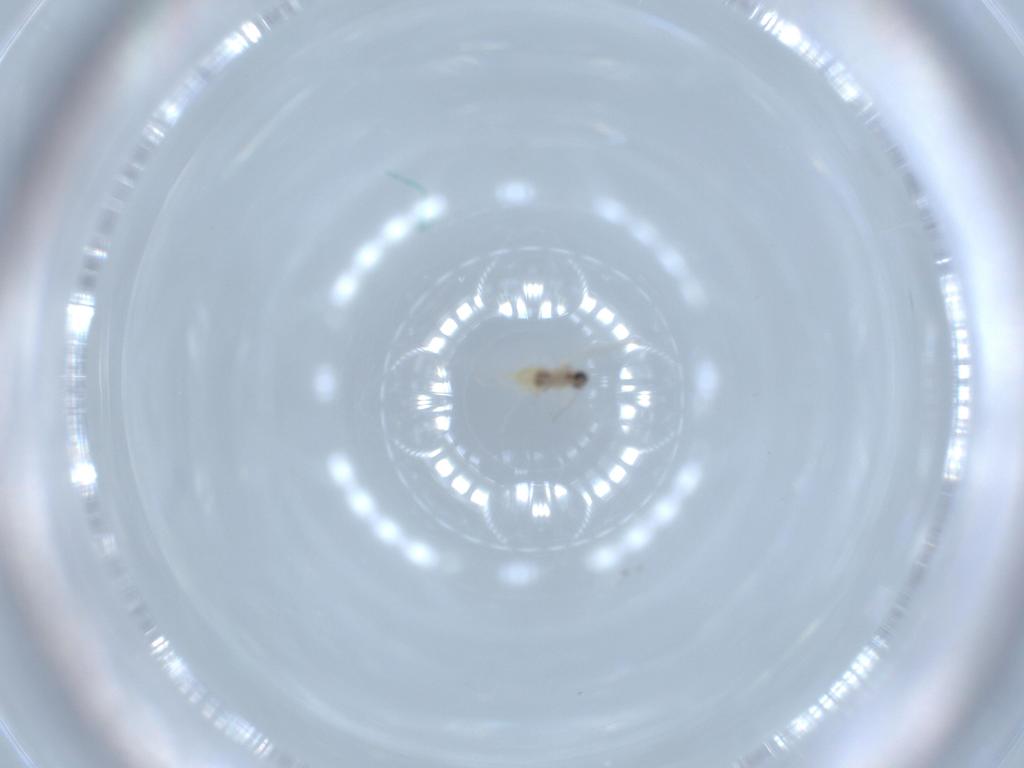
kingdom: Animalia
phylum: Arthropoda
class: Insecta
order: Diptera
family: Cecidomyiidae
